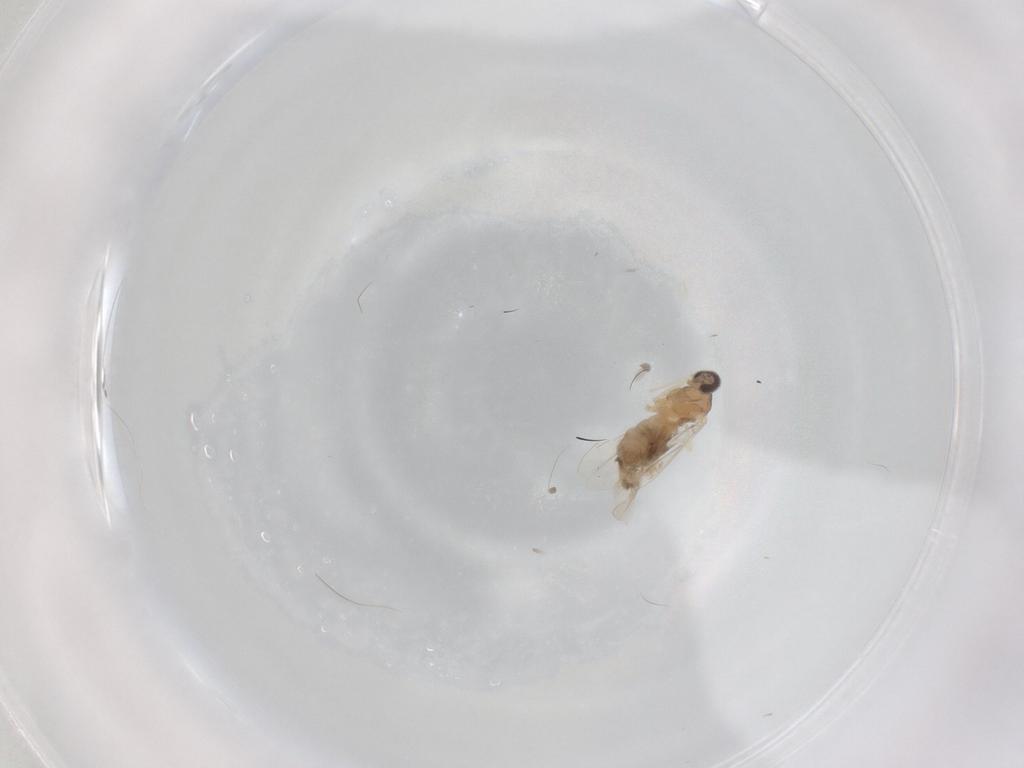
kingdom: Animalia
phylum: Arthropoda
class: Insecta
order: Diptera
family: Cecidomyiidae
